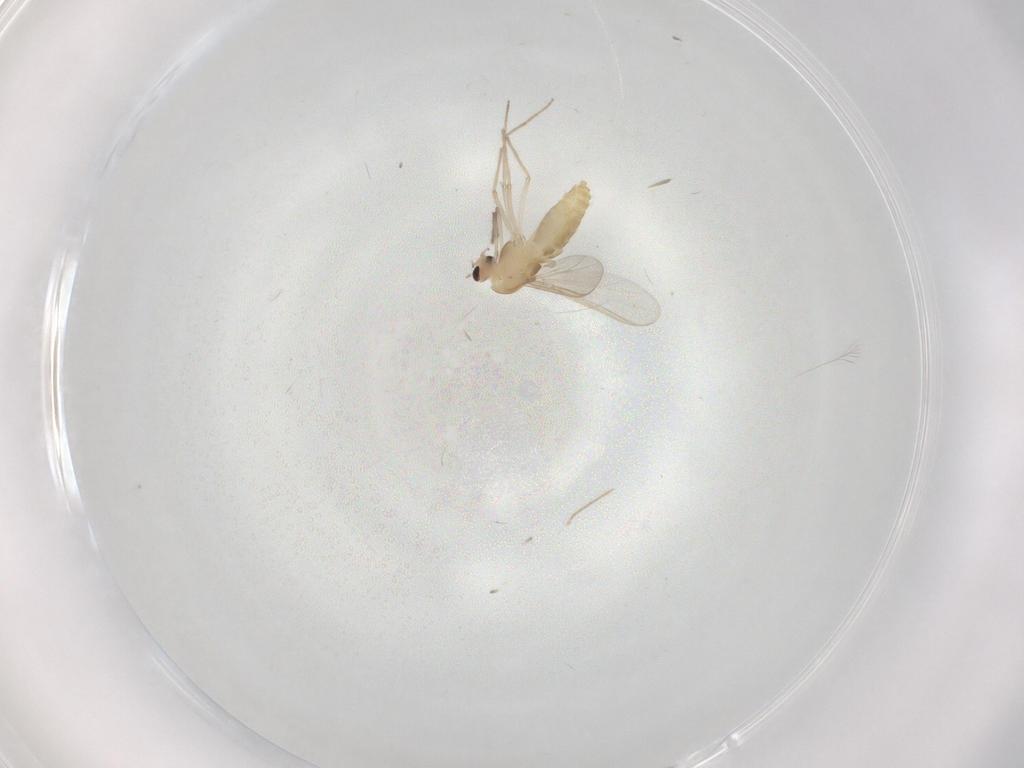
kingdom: Animalia
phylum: Arthropoda
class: Insecta
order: Diptera
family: Chironomidae
